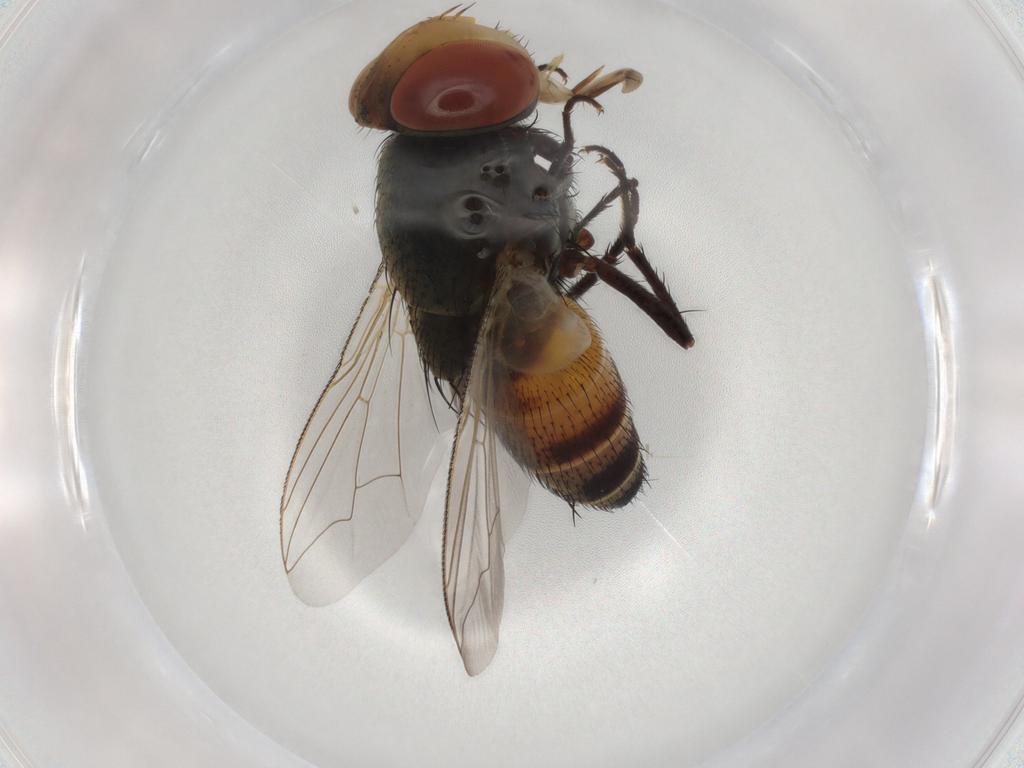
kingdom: Animalia
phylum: Arthropoda
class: Insecta
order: Diptera
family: Sarcophagidae
